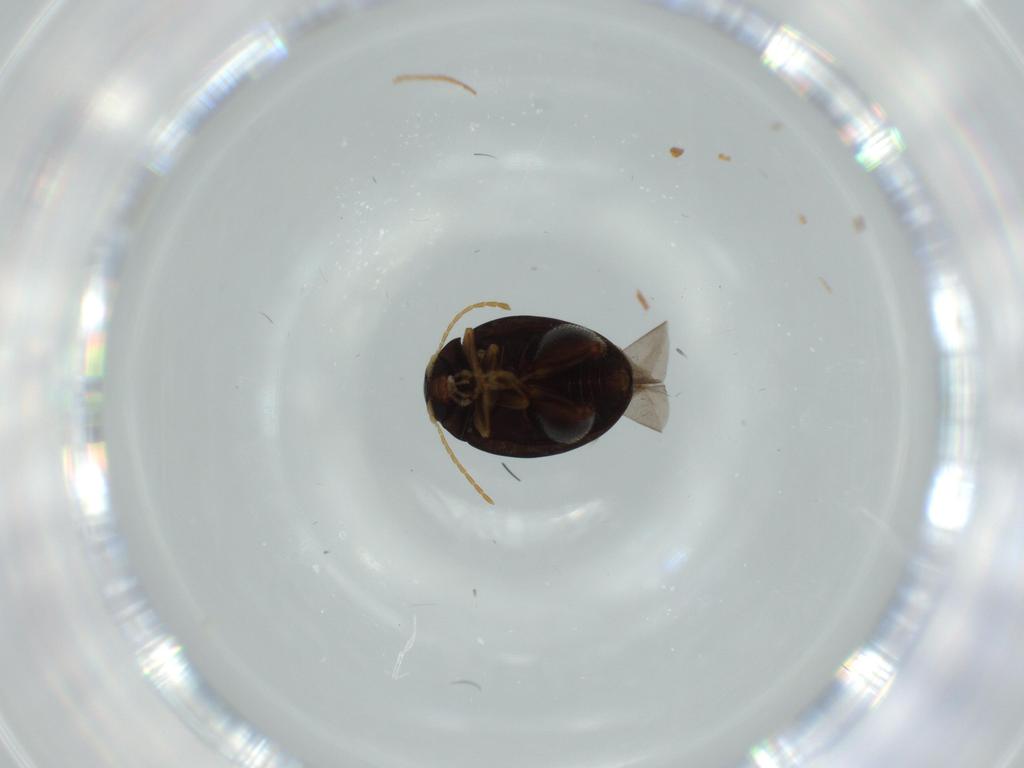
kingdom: Animalia
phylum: Arthropoda
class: Insecta
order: Coleoptera
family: Chrysomelidae
